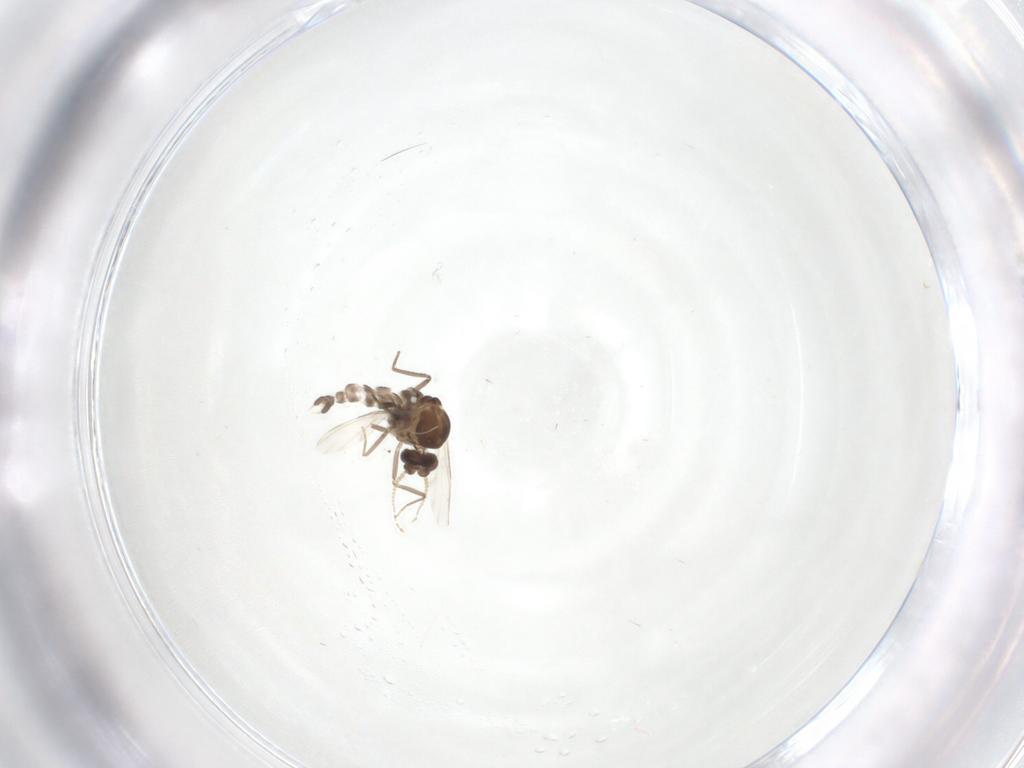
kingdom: Animalia
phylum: Arthropoda
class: Insecta
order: Diptera
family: Ceratopogonidae
